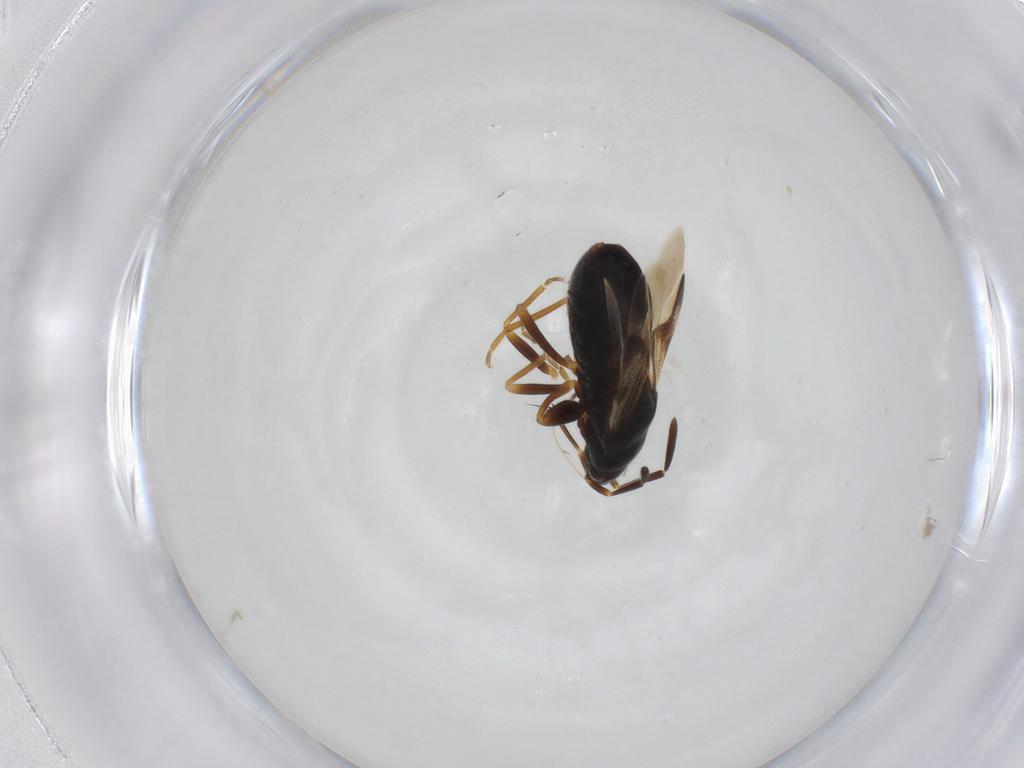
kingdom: Animalia
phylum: Arthropoda
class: Insecta
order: Hemiptera
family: Rhyparochromidae
